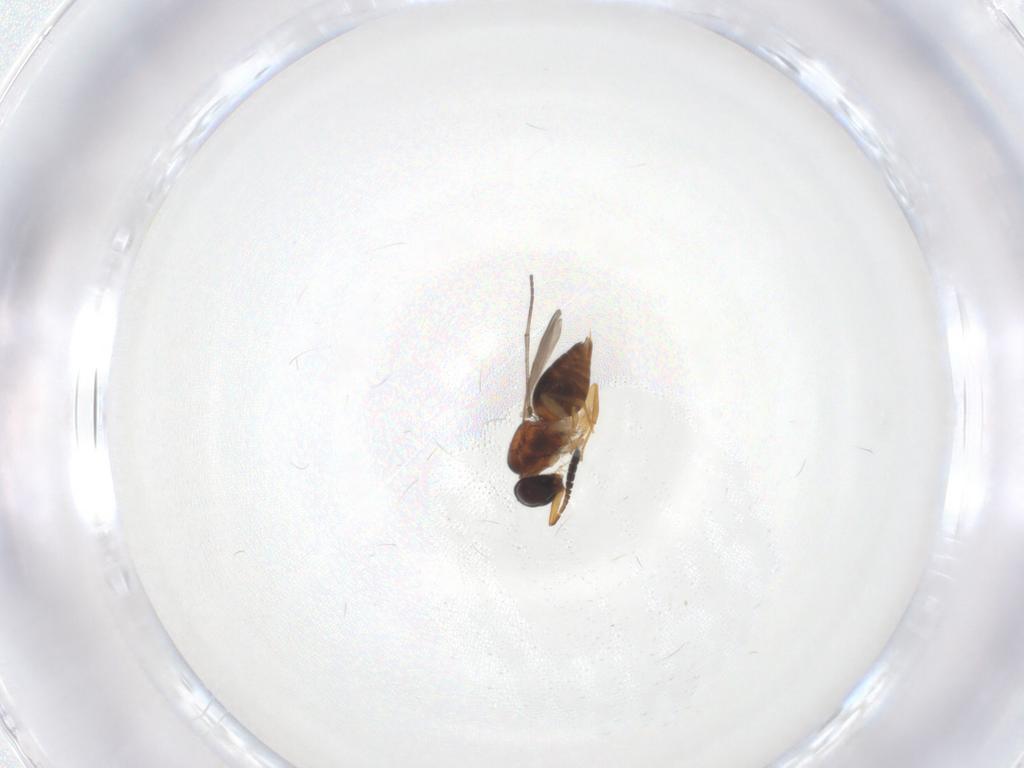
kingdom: Animalia
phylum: Arthropoda
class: Insecta
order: Hymenoptera
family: Ceraphronidae
